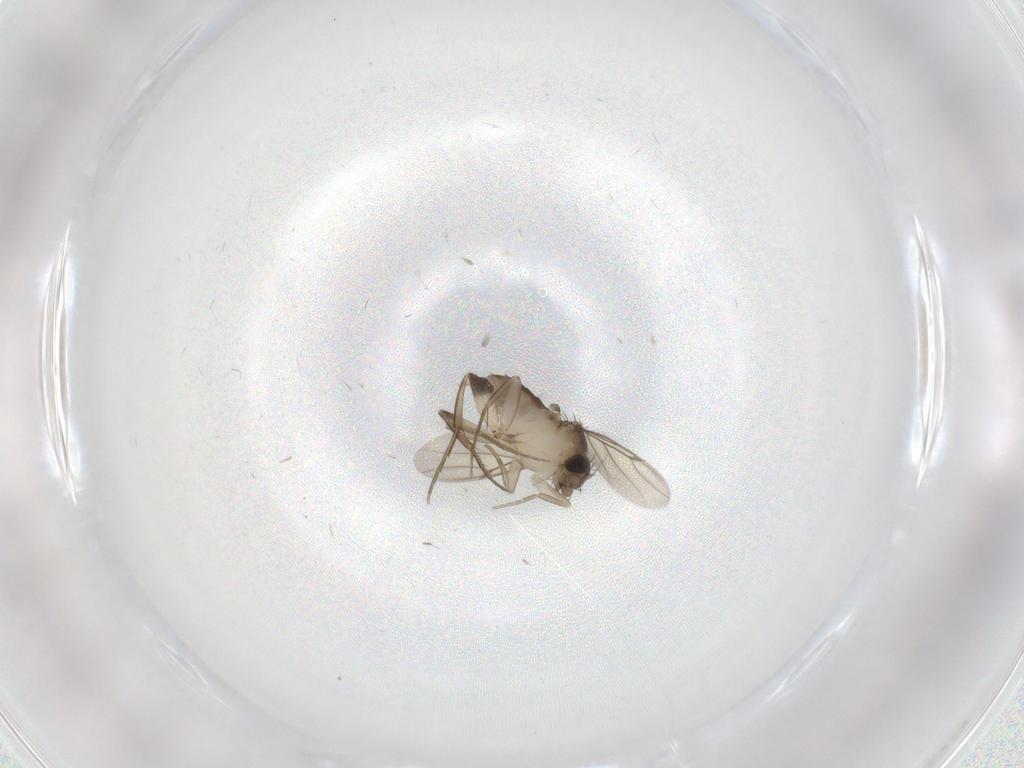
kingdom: Animalia
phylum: Arthropoda
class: Insecta
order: Diptera
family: Phoridae
